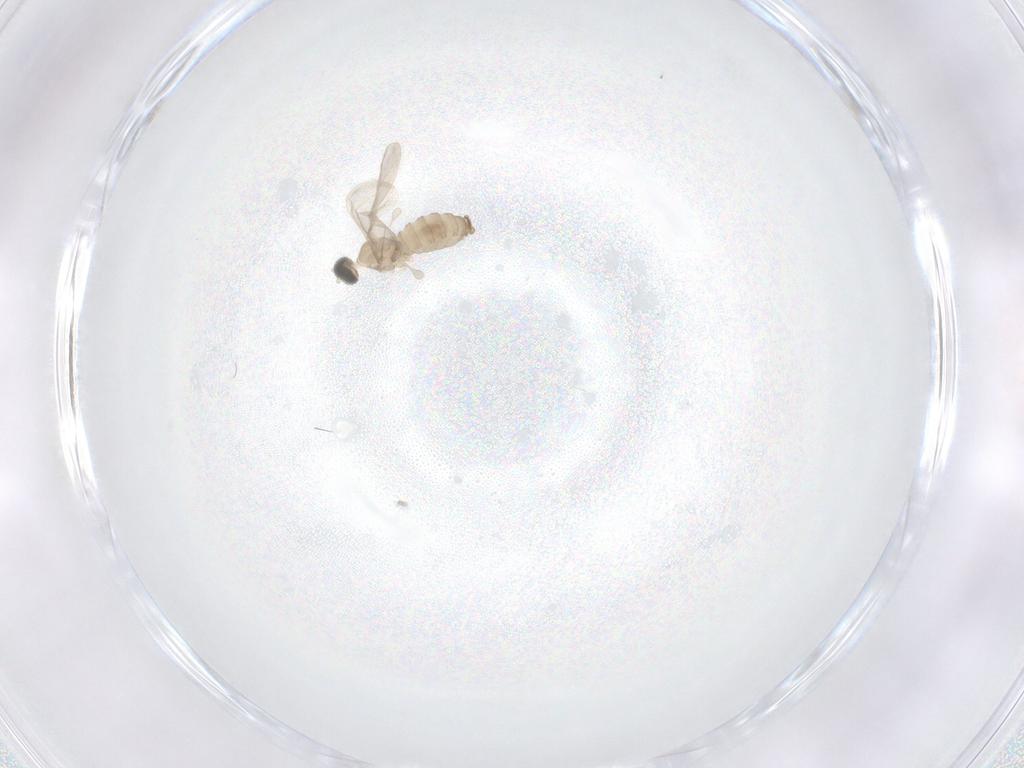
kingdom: Animalia
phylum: Arthropoda
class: Insecta
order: Diptera
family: Cecidomyiidae
